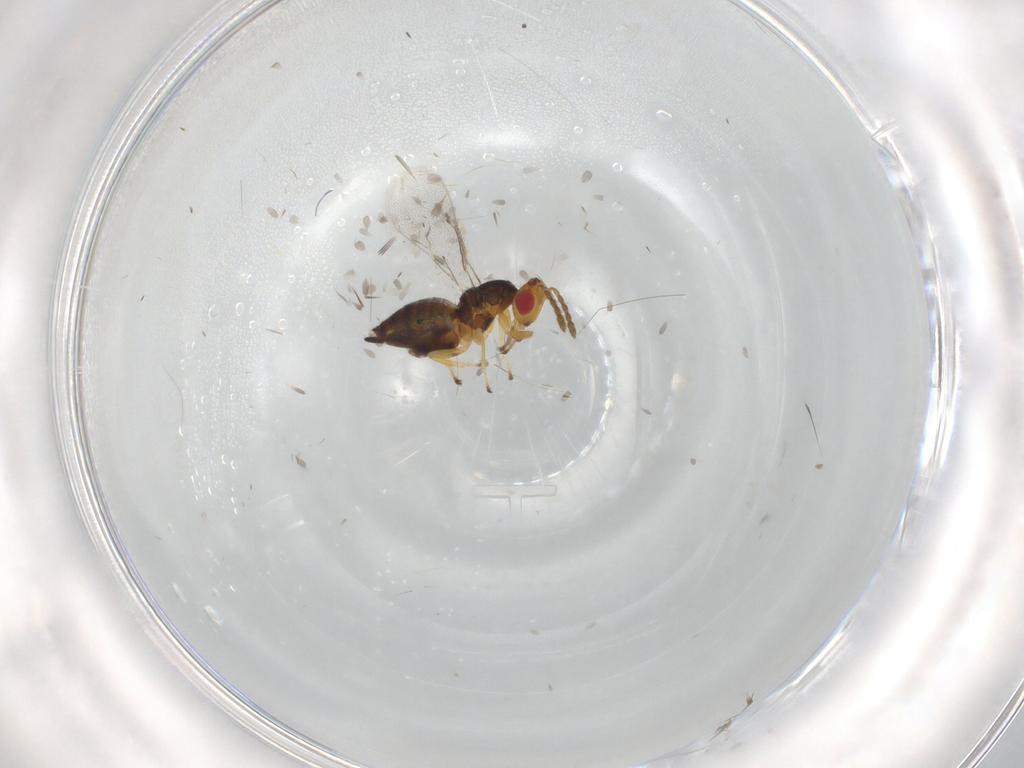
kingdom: Animalia
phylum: Arthropoda
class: Insecta
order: Hymenoptera
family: Eulophidae
